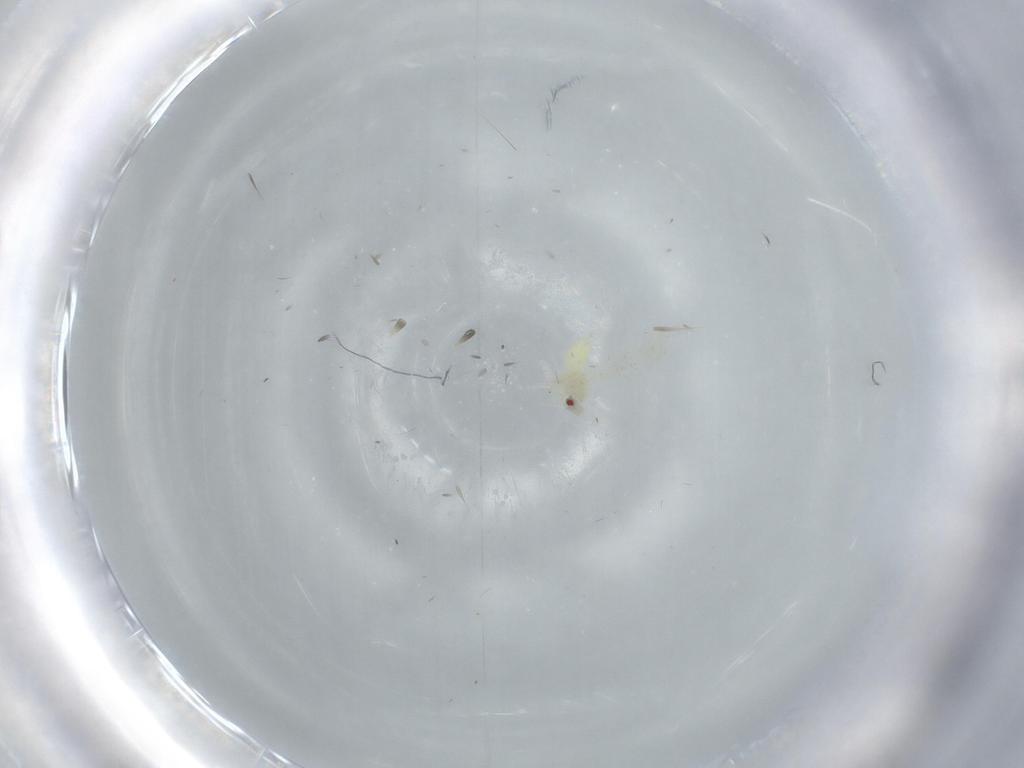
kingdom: Animalia
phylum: Arthropoda
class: Insecta
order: Hemiptera
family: Aleyrodidae
